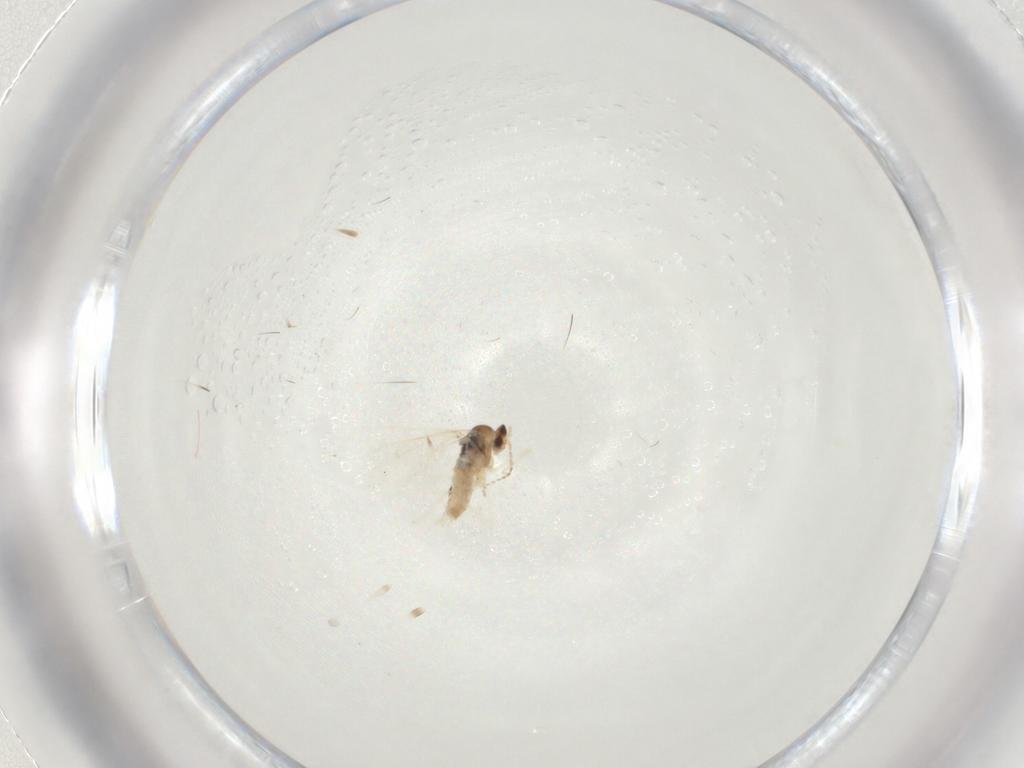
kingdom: Animalia
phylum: Arthropoda
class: Insecta
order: Diptera
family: Cecidomyiidae
